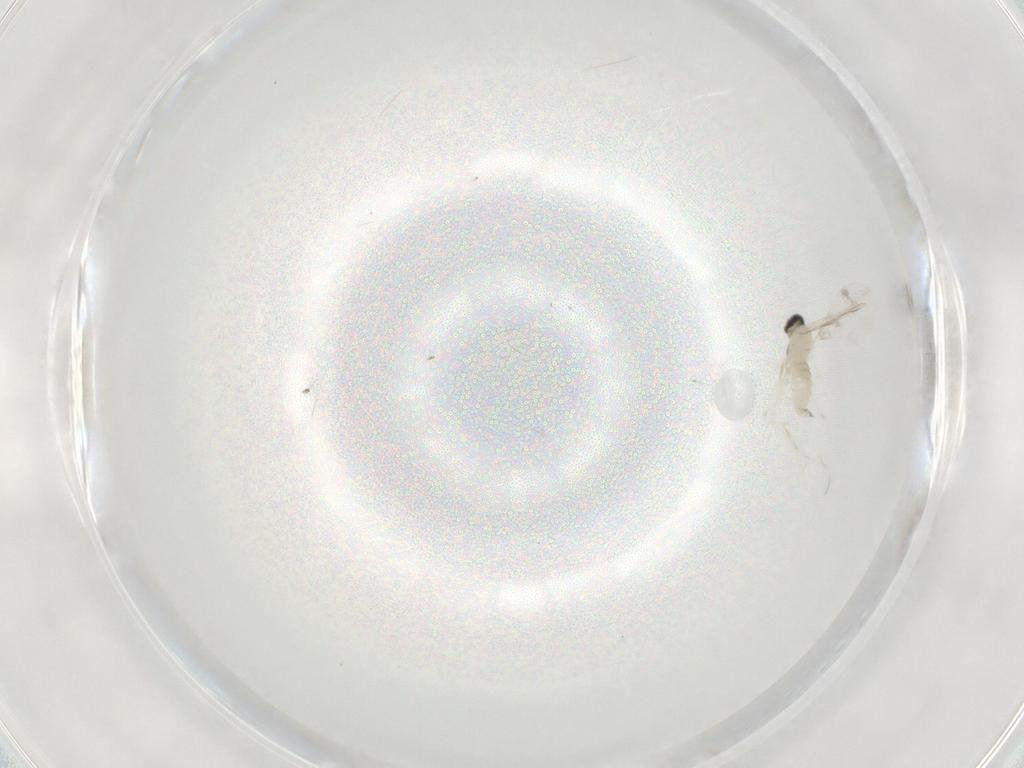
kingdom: Animalia
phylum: Arthropoda
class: Insecta
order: Diptera
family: Cecidomyiidae
